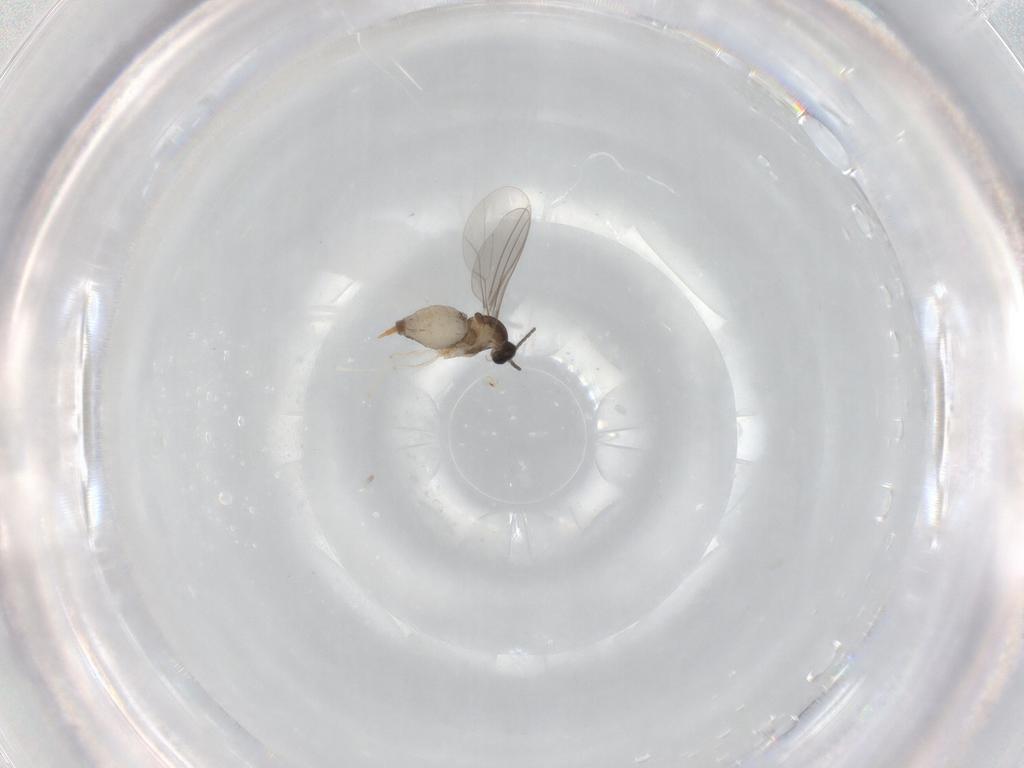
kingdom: Animalia
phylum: Arthropoda
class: Insecta
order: Diptera
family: Cecidomyiidae
